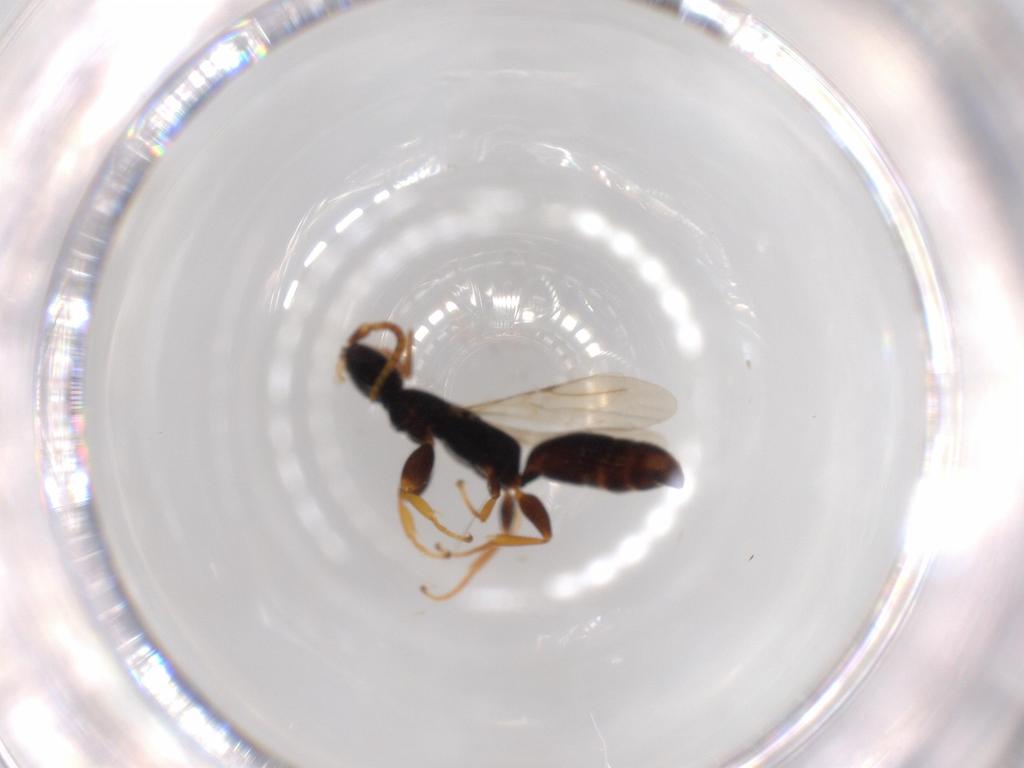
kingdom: Animalia
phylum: Arthropoda
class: Insecta
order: Hymenoptera
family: Bethylidae
